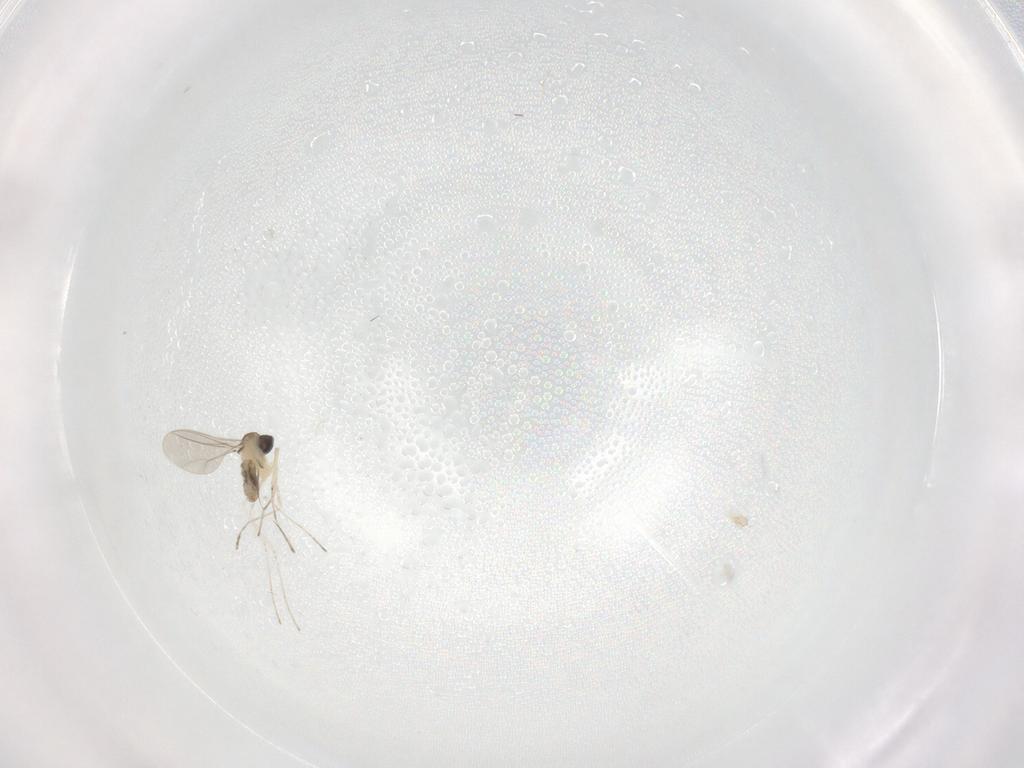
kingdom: Animalia
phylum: Arthropoda
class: Insecta
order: Diptera
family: Cecidomyiidae
